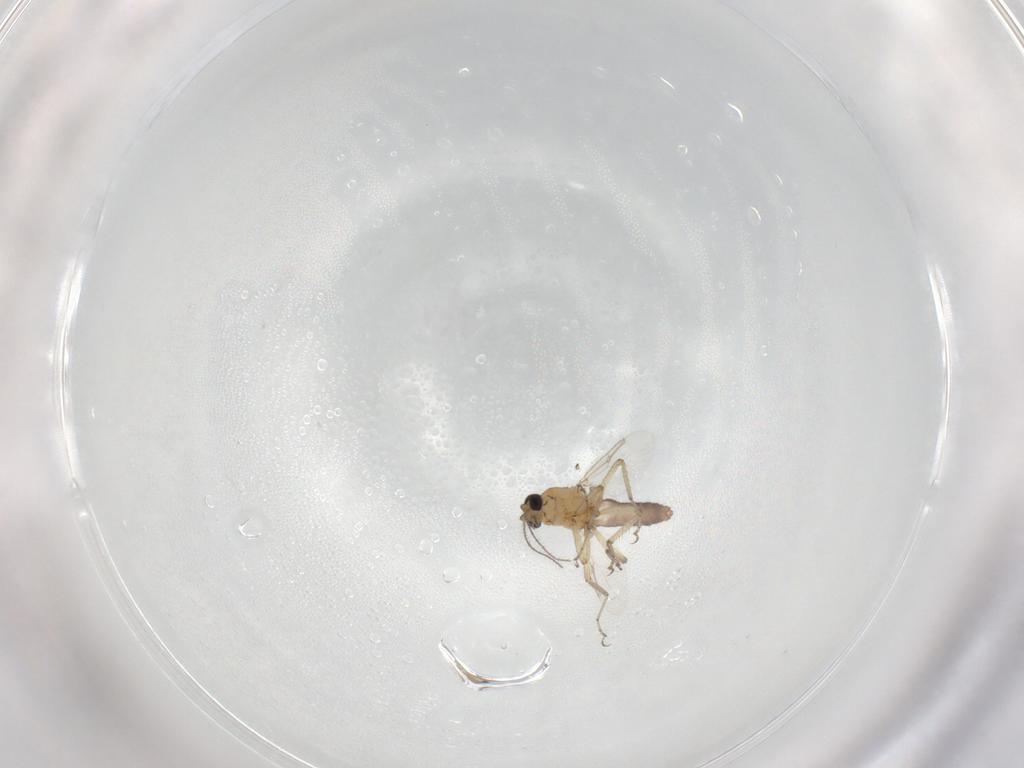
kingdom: Animalia
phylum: Arthropoda
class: Insecta
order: Diptera
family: Ceratopogonidae
